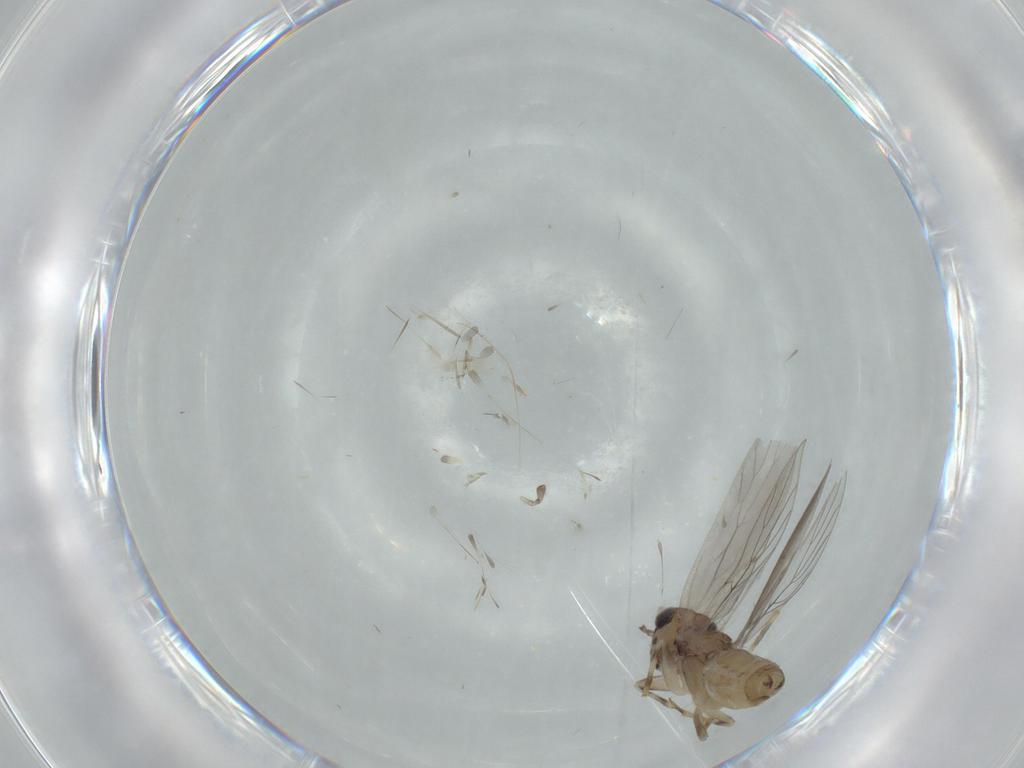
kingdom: Animalia
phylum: Arthropoda
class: Insecta
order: Psocodea
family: Lepidopsocidae
